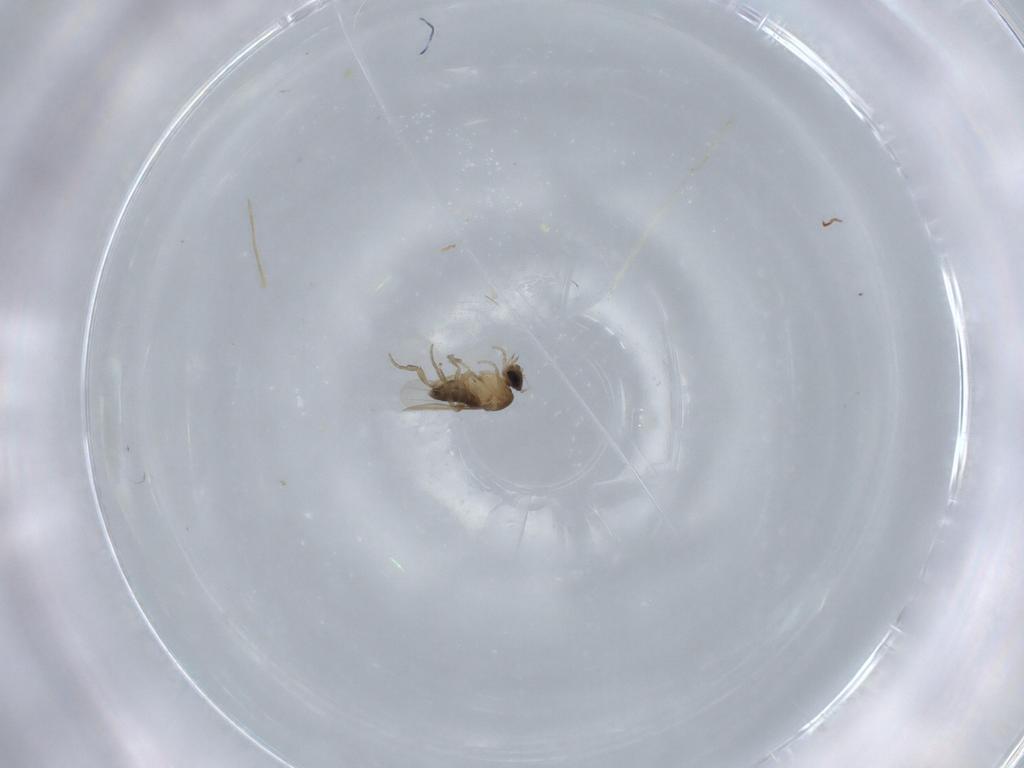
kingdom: Animalia
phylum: Arthropoda
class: Insecta
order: Diptera
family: Phoridae
